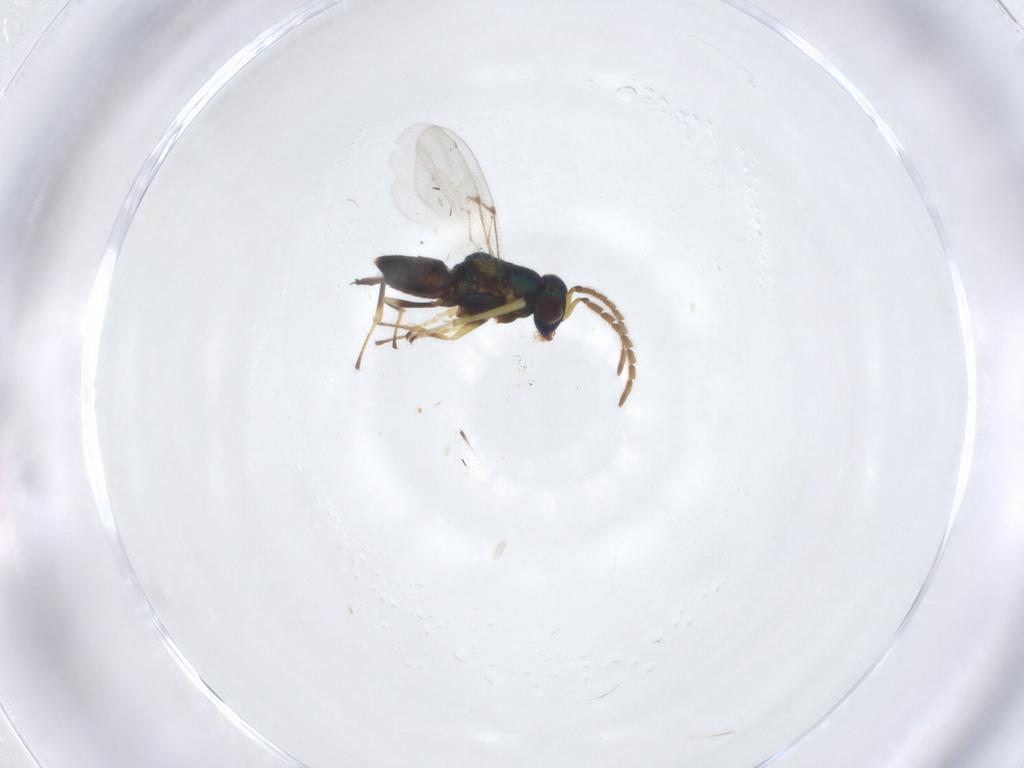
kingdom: Animalia
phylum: Arthropoda
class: Insecta
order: Hymenoptera
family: Encyrtidae
